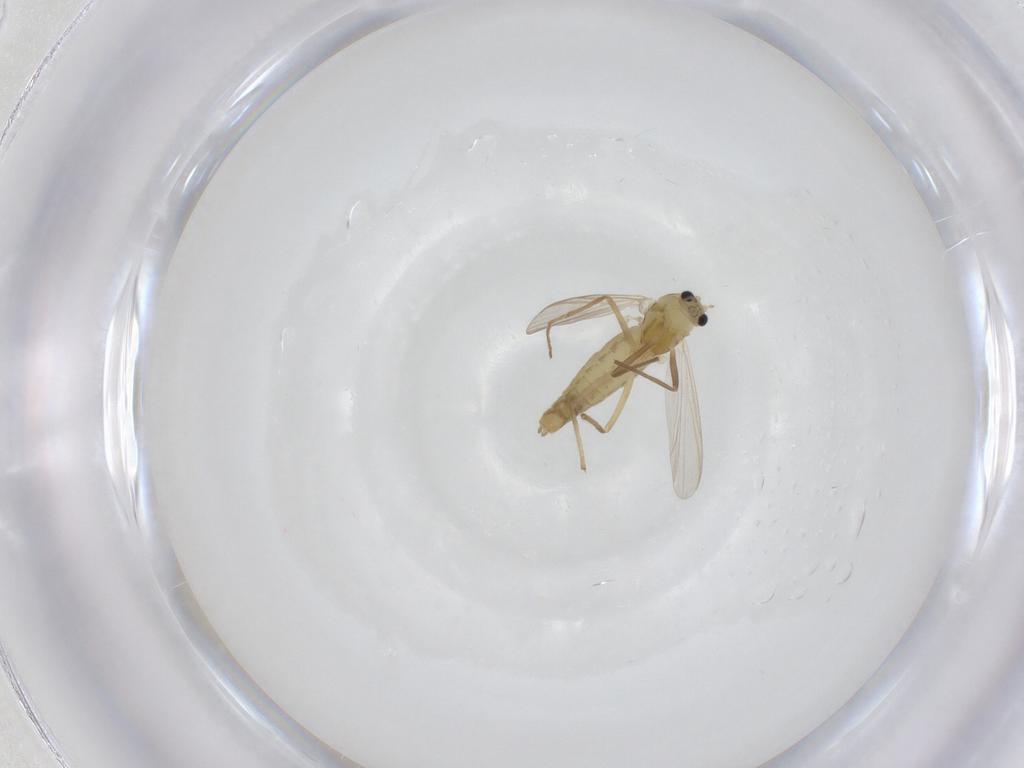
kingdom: Animalia
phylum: Arthropoda
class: Insecta
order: Diptera
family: Chironomidae
